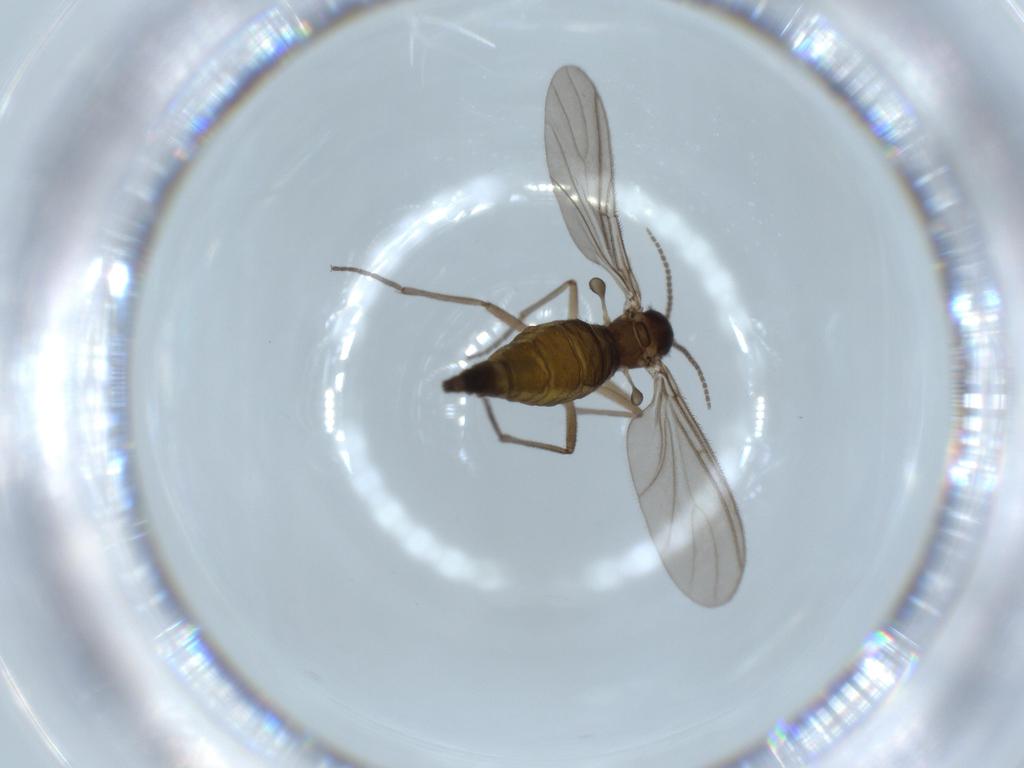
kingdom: Animalia
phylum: Arthropoda
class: Insecta
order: Diptera
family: Sciaridae
